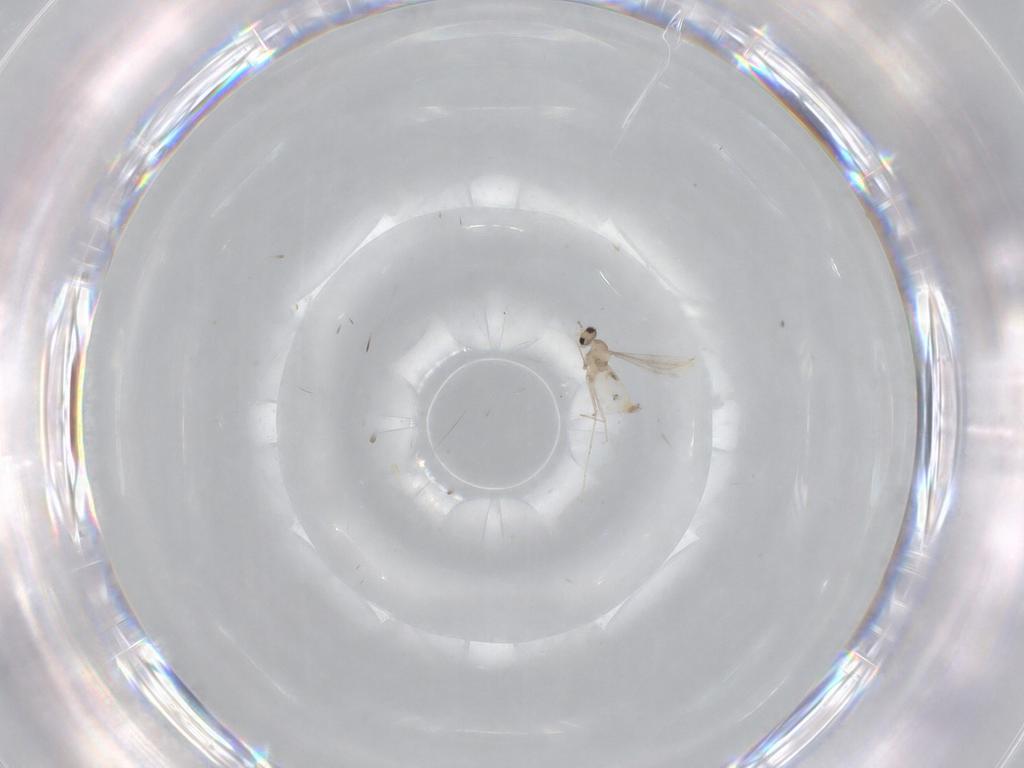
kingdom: Animalia
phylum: Arthropoda
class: Insecta
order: Diptera
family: Cecidomyiidae
